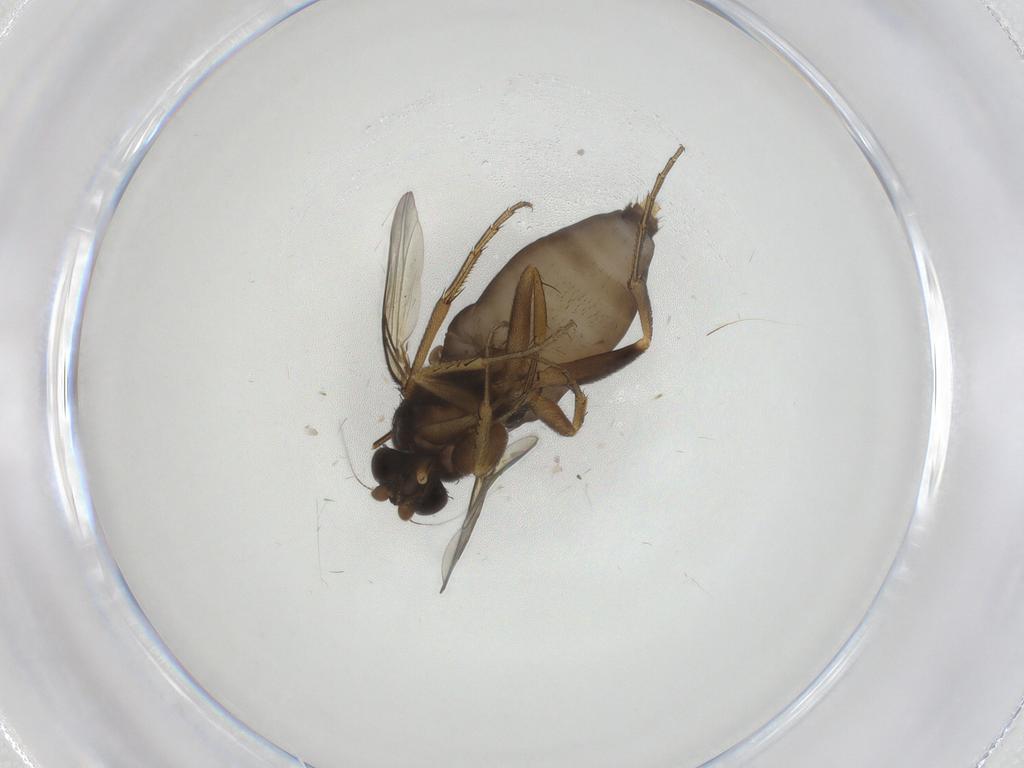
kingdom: Animalia
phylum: Arthropoda
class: Insecta
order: Diptera
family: Phoridae
